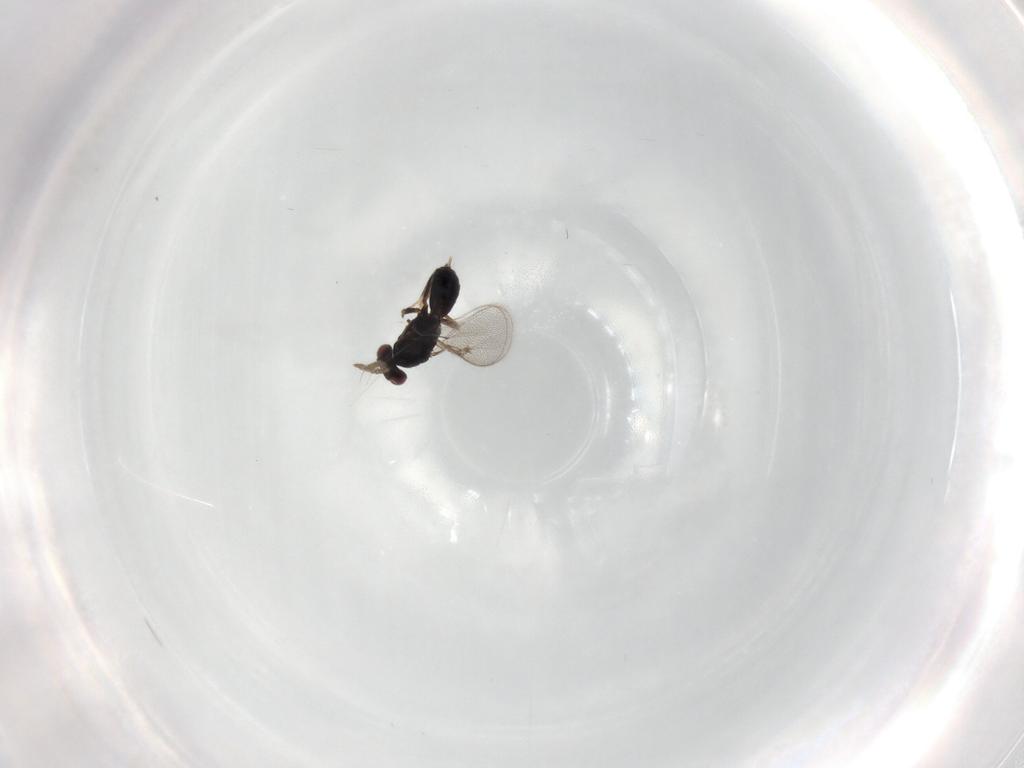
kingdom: Animalia
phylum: Arthropoda
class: Insecta
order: Hymenoptera
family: Eulophidae
